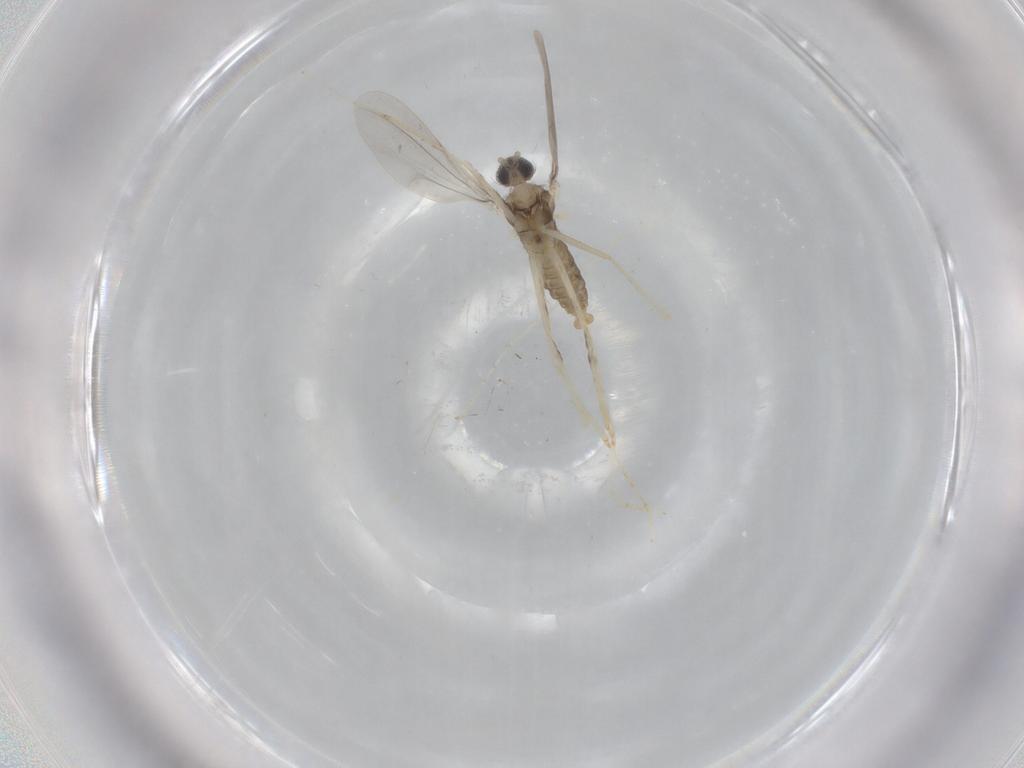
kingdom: Animalia
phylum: Arthropoda
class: Insecta
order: Diptera
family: Cecidomyiidae
